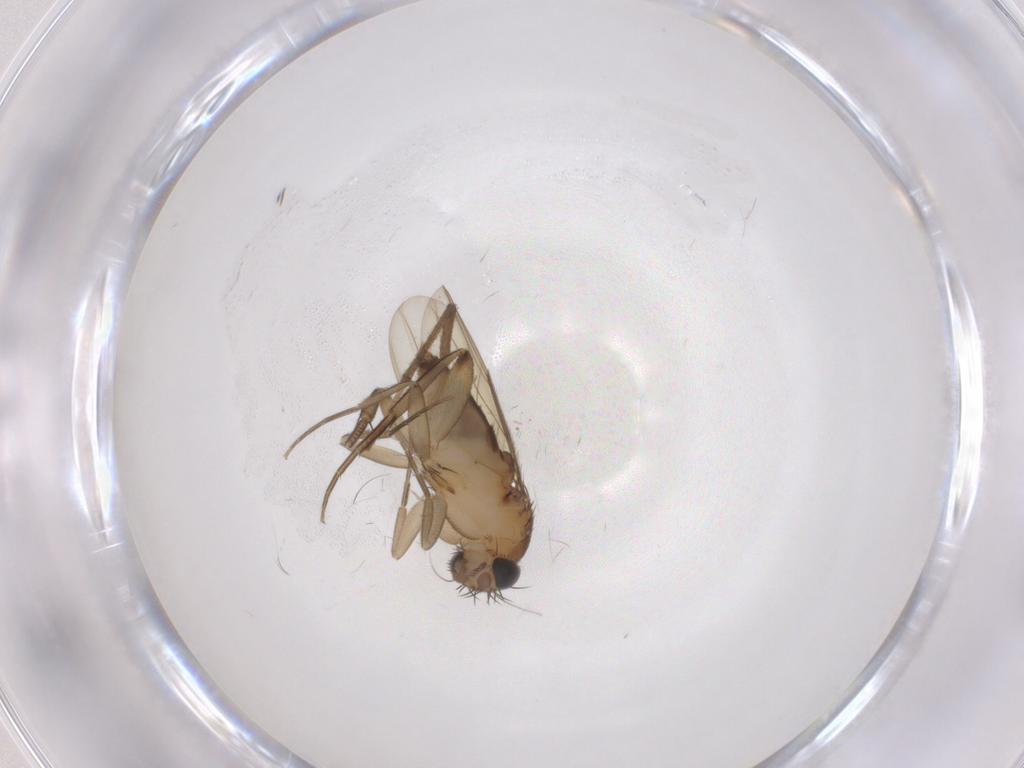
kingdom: Animalia
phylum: Arthropoda
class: Insecta
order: Diptera
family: Phoridae
